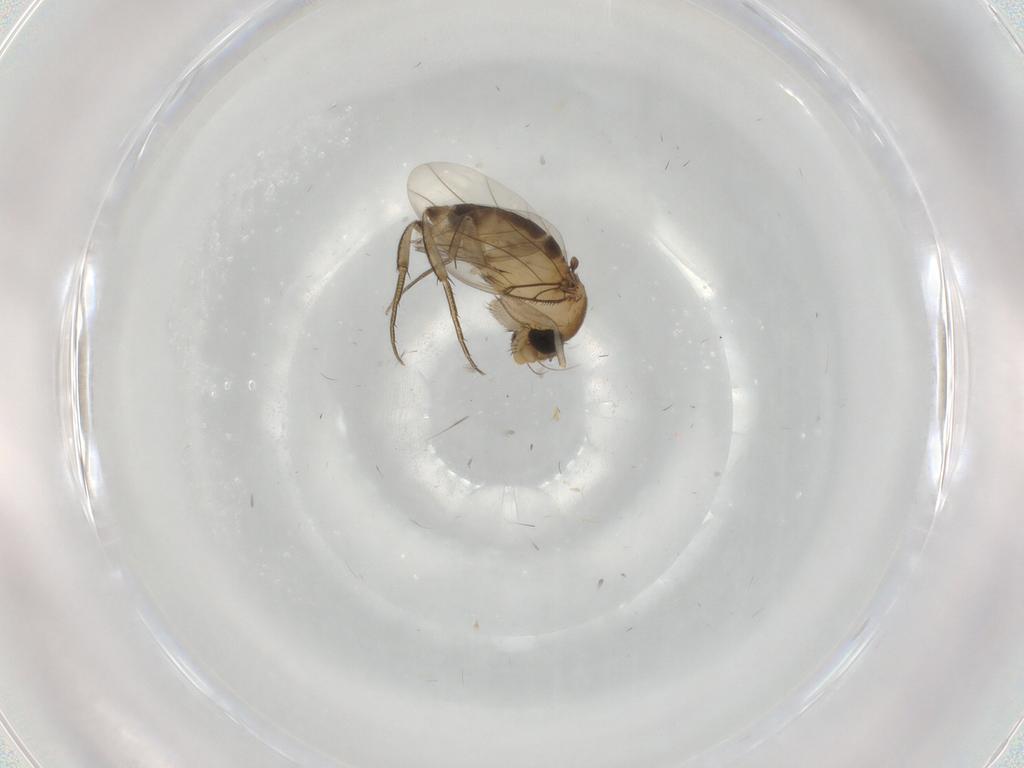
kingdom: Animalia
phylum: Arthropoda
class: Insecta
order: Diptera
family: Phoridae
